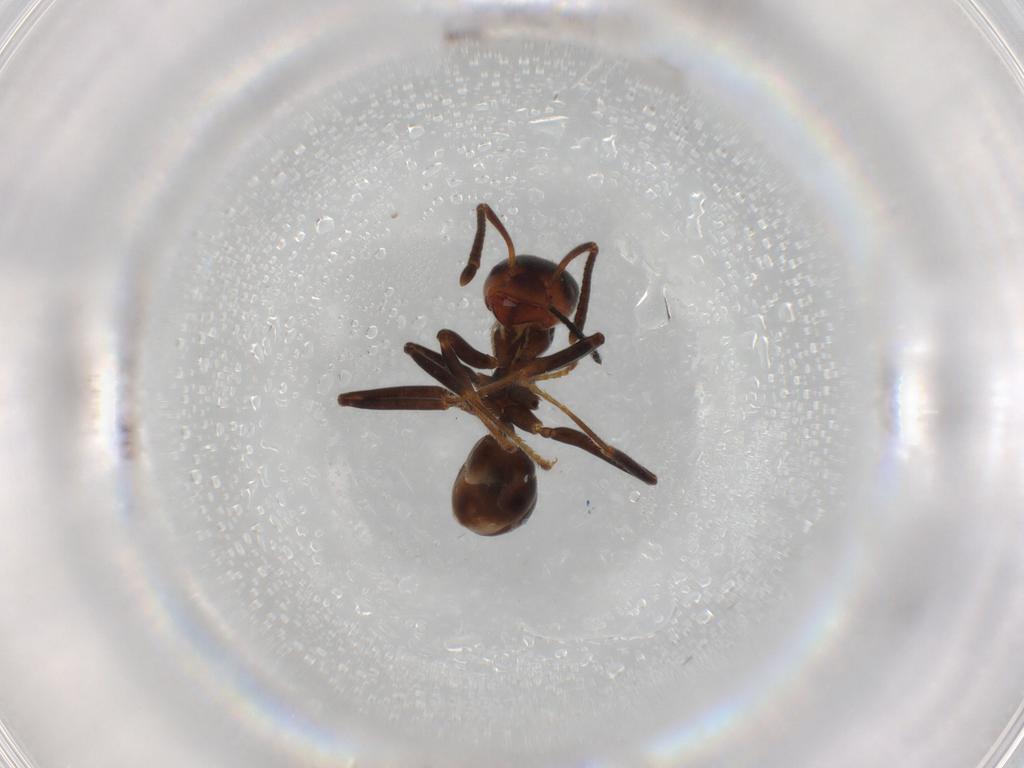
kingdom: Animalia
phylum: Arthropoda
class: Insecta
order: Hymenoptera
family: Formicidae
